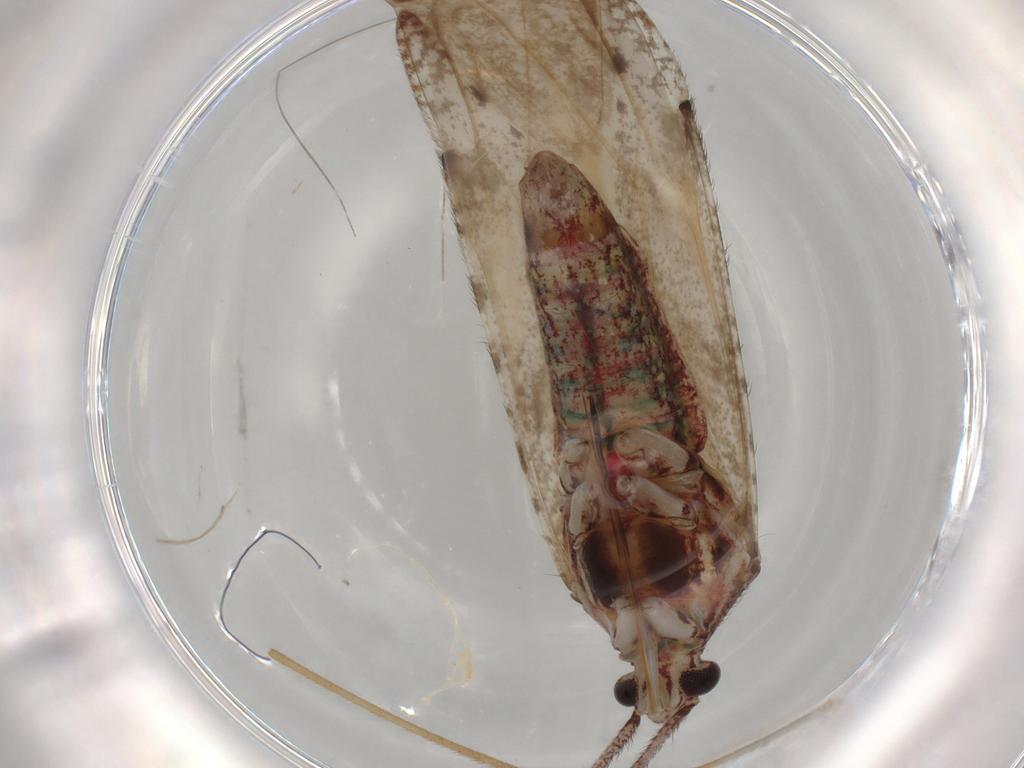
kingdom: Animalia
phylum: Arthropoda
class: Insecta
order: Hemiptera
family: Miridae
